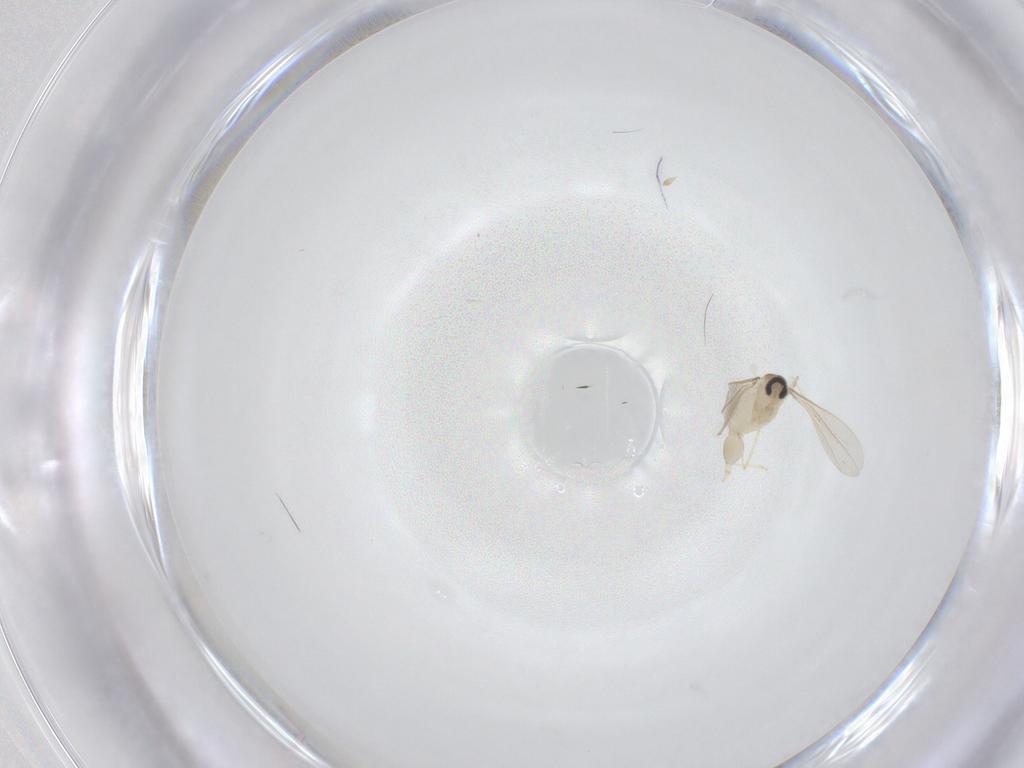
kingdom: Animalia
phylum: Arthropoda
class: Insecta
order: Diptera
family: Cecidomyiidae
